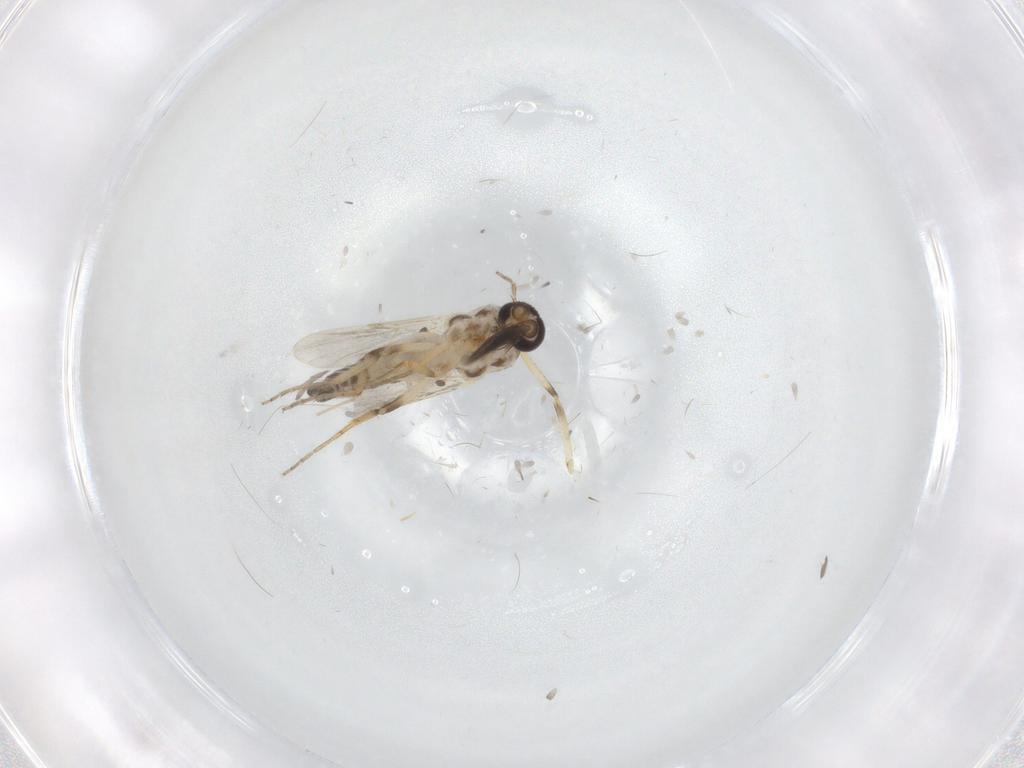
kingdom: Animalia
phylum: Arthropoda
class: Insecta
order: Diptera
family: Ceratopogonidae
